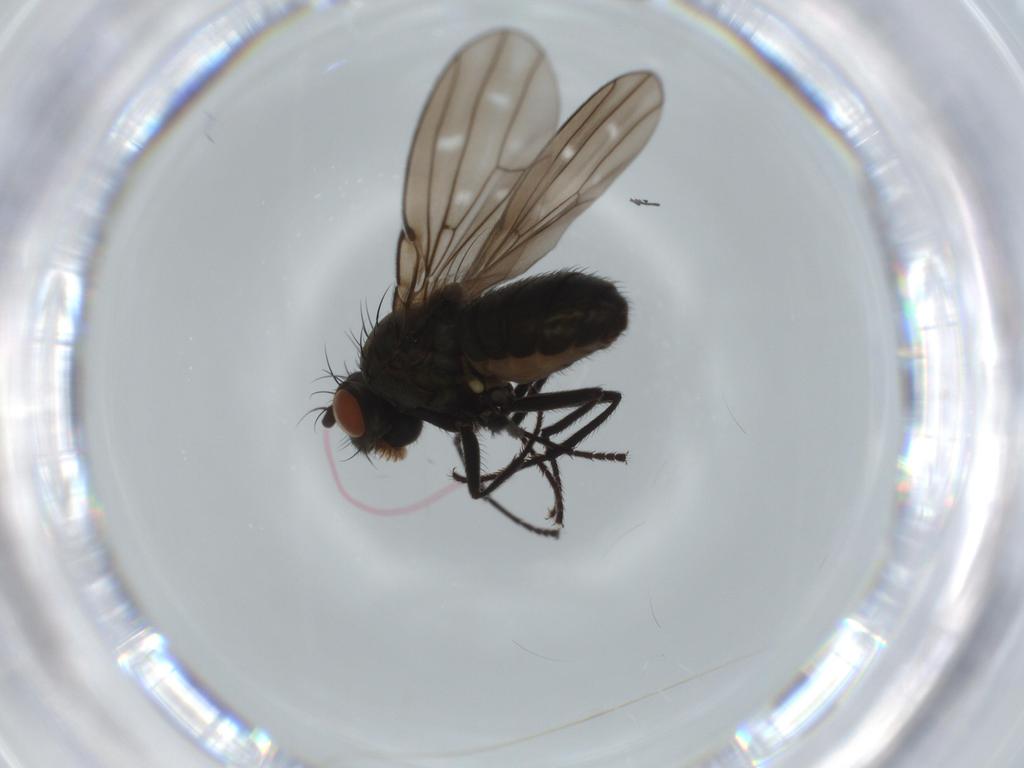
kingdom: Animalia
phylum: Arthropoda
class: Insecta
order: Diptera
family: Ephydridae
